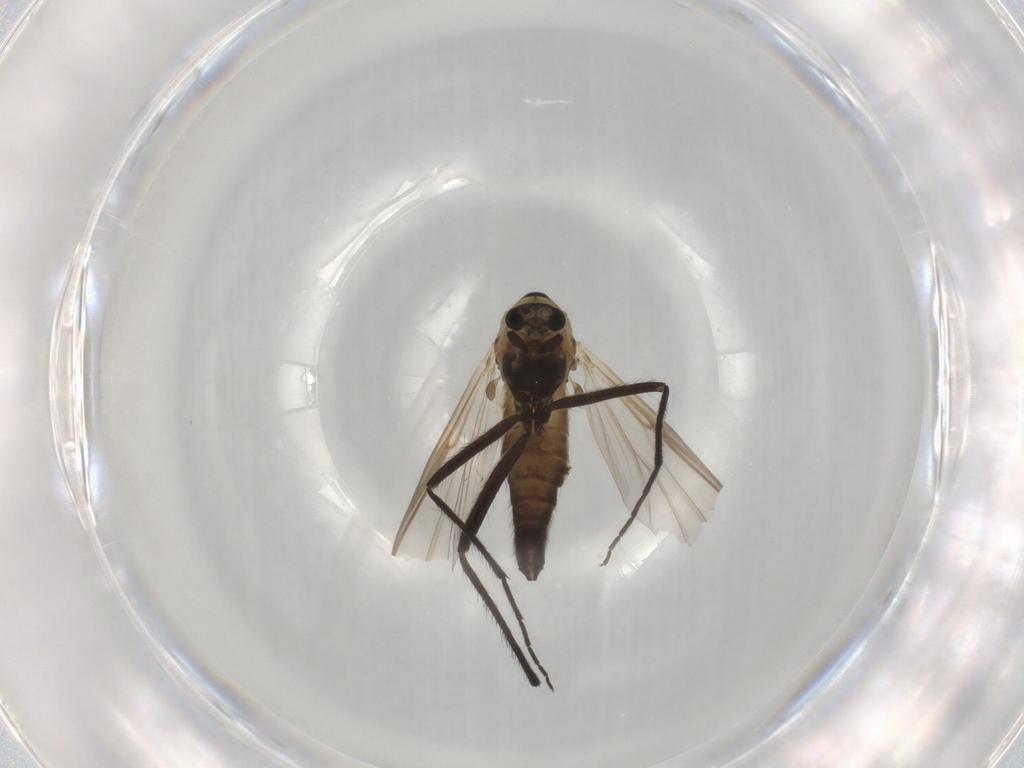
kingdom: Animalia
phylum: Arthropoda
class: Insecta
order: Diptera
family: Chironomidae
